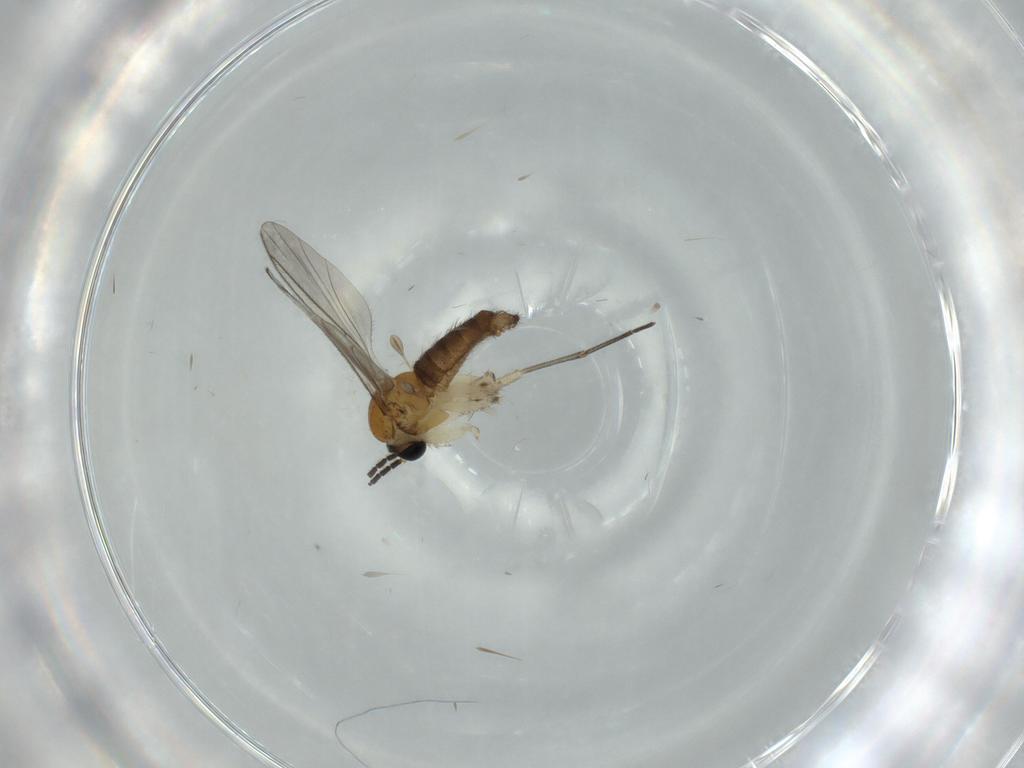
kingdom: Animalia
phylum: Arthropoda
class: Insecta
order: Diptera
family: Sciaridae
